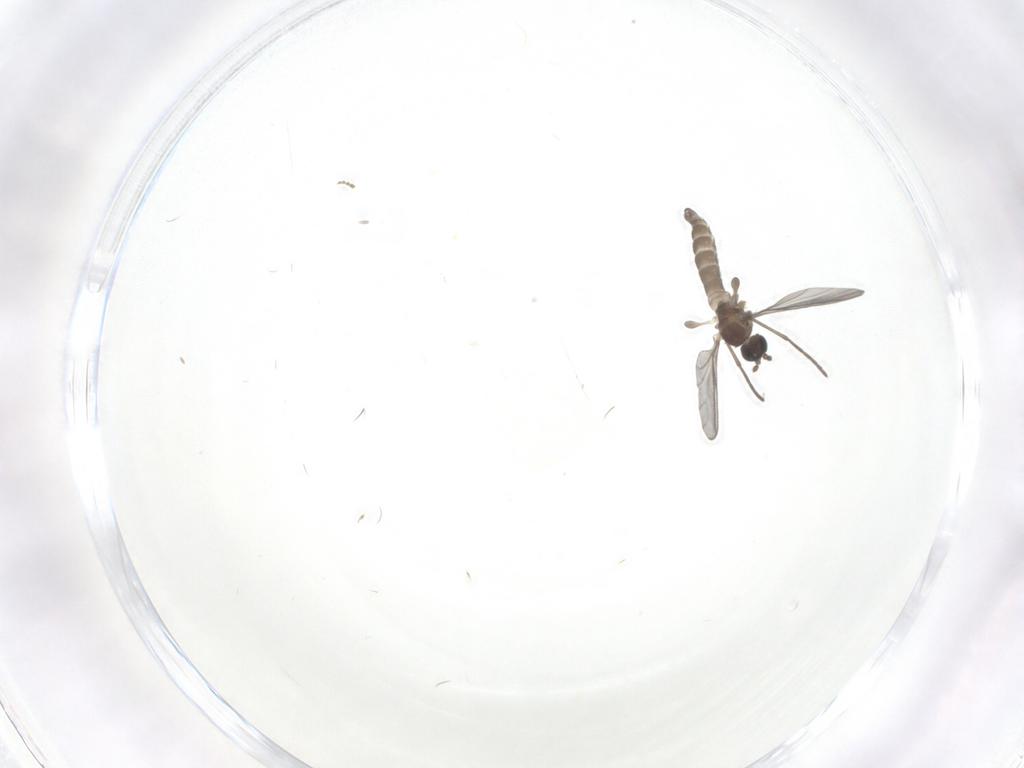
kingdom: Animalia
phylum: Arthropoda
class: Insecta
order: Diptera
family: Sciaridae
